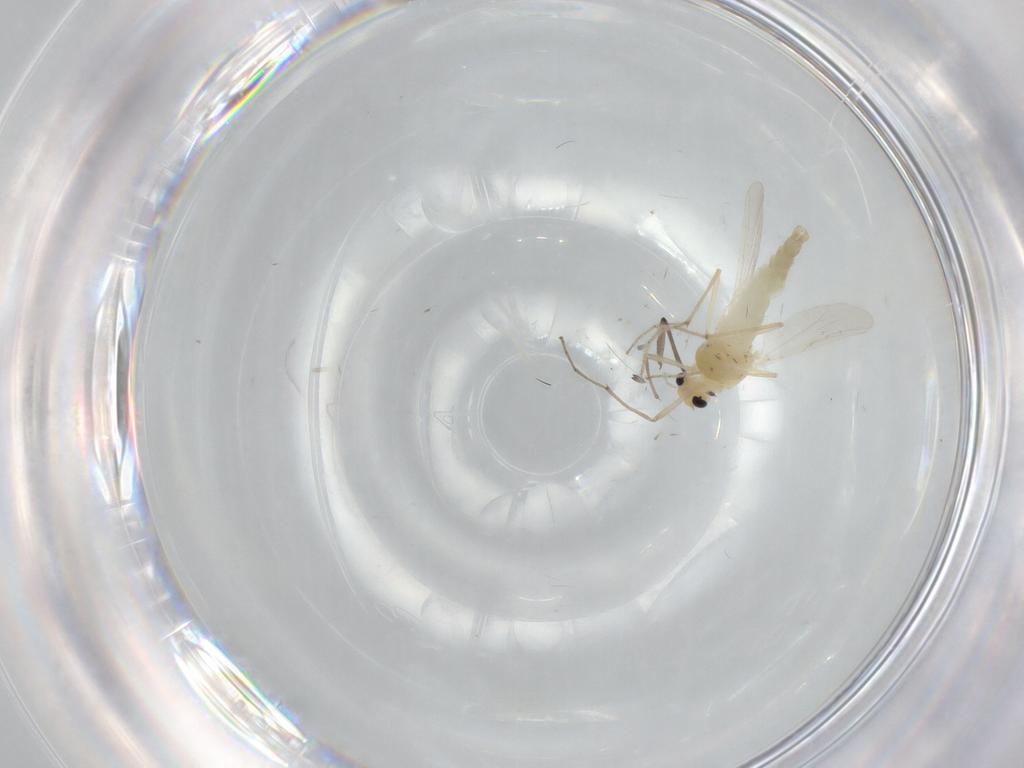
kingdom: Animalia
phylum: Arthropoda
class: Insecta
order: Diptera
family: Chironomidae
